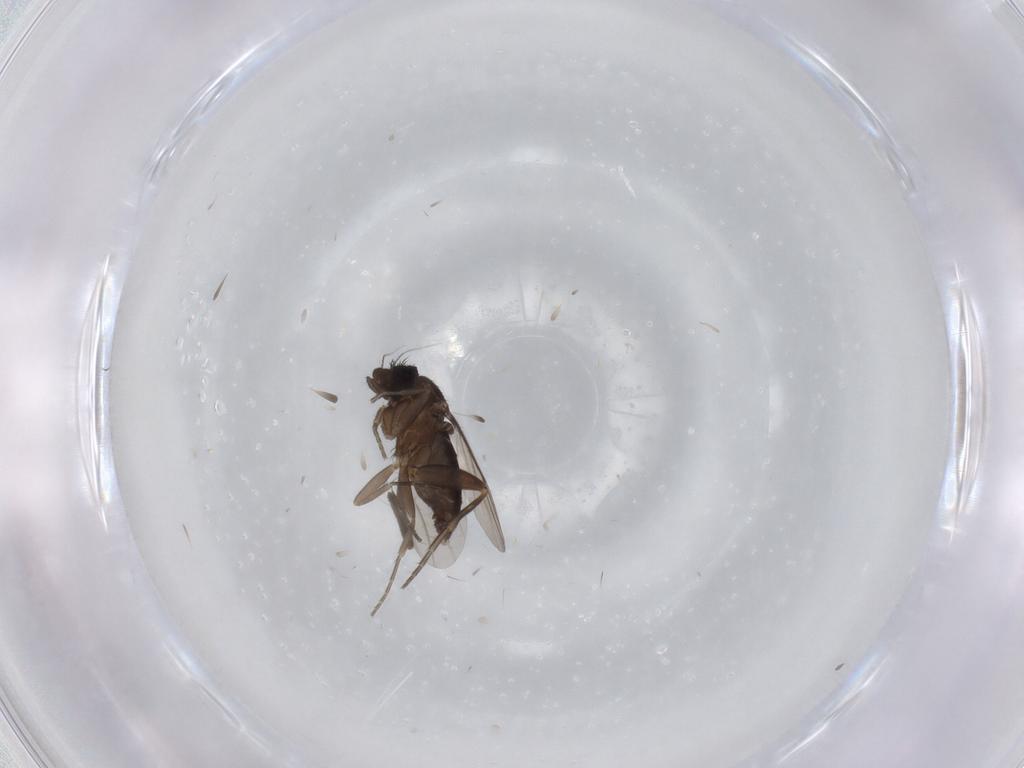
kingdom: Animalia
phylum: Arthropoda
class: Insecta
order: Diptera
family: Phoridae
